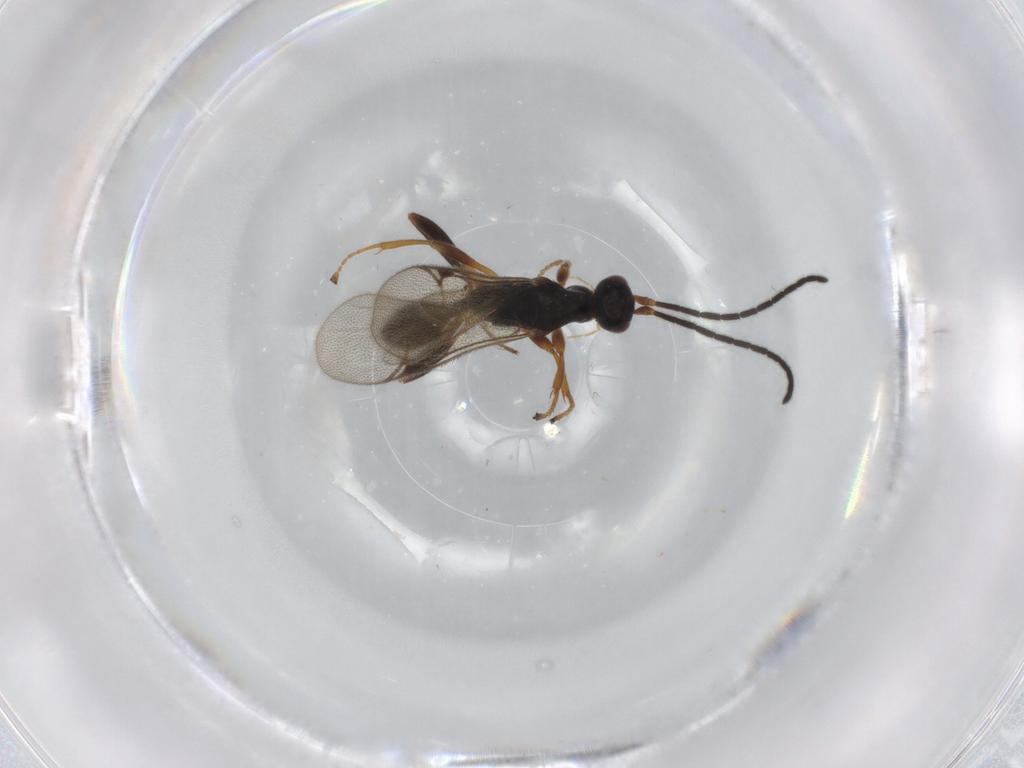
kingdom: Animalia
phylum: Arthropoda
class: Insecta
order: Hymenoptera
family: Proctotrupidae
